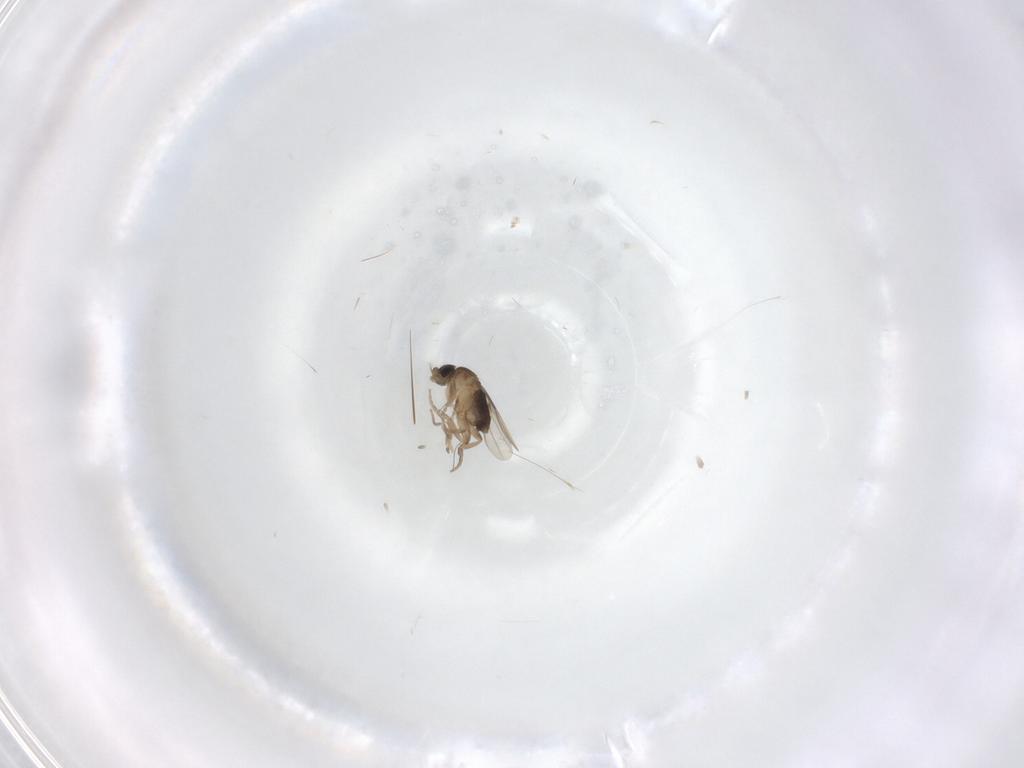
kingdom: Animalia
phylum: Arthropoda
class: Insecta
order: Diptera
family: Phoridae
